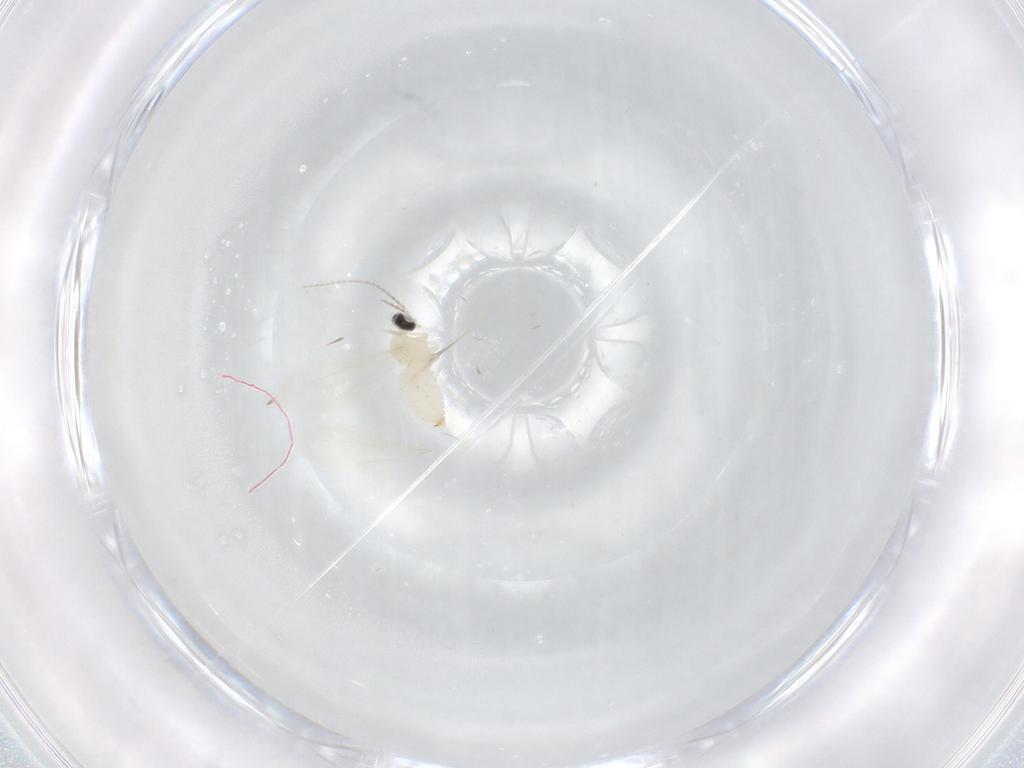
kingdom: Animalia
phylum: Arthropoda
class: Insecta
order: Diptera
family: Cecidomyiidae
